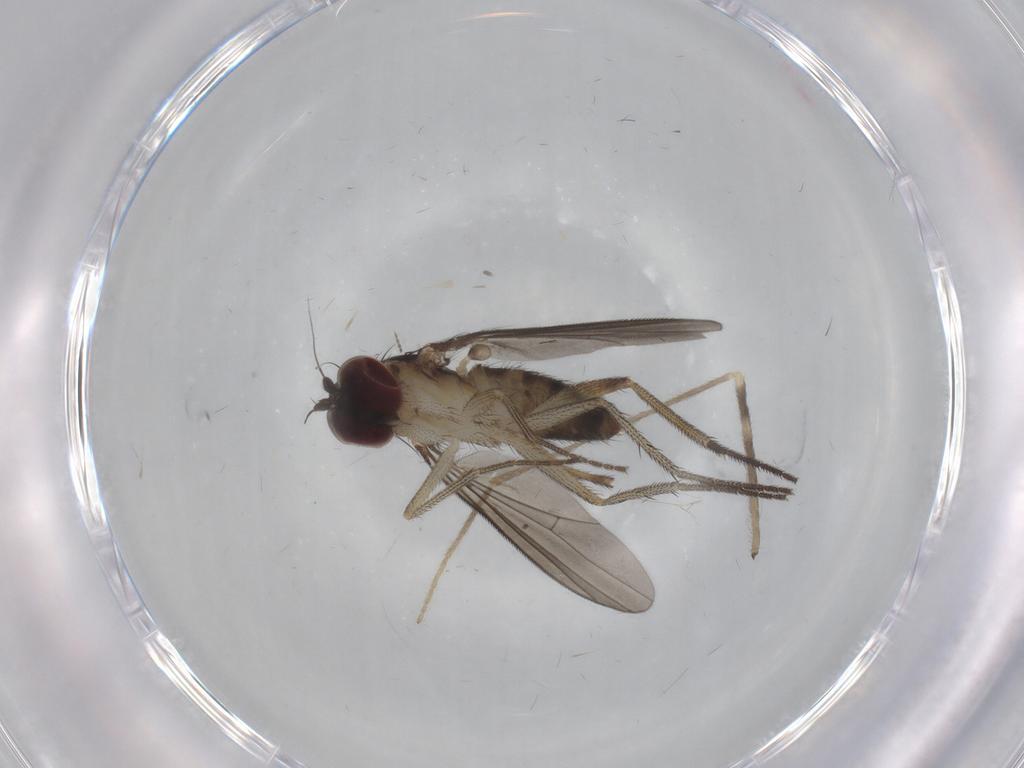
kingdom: Animalia
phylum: Arthropoda
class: Insecta
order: Diptera
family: Dolichopodidae
